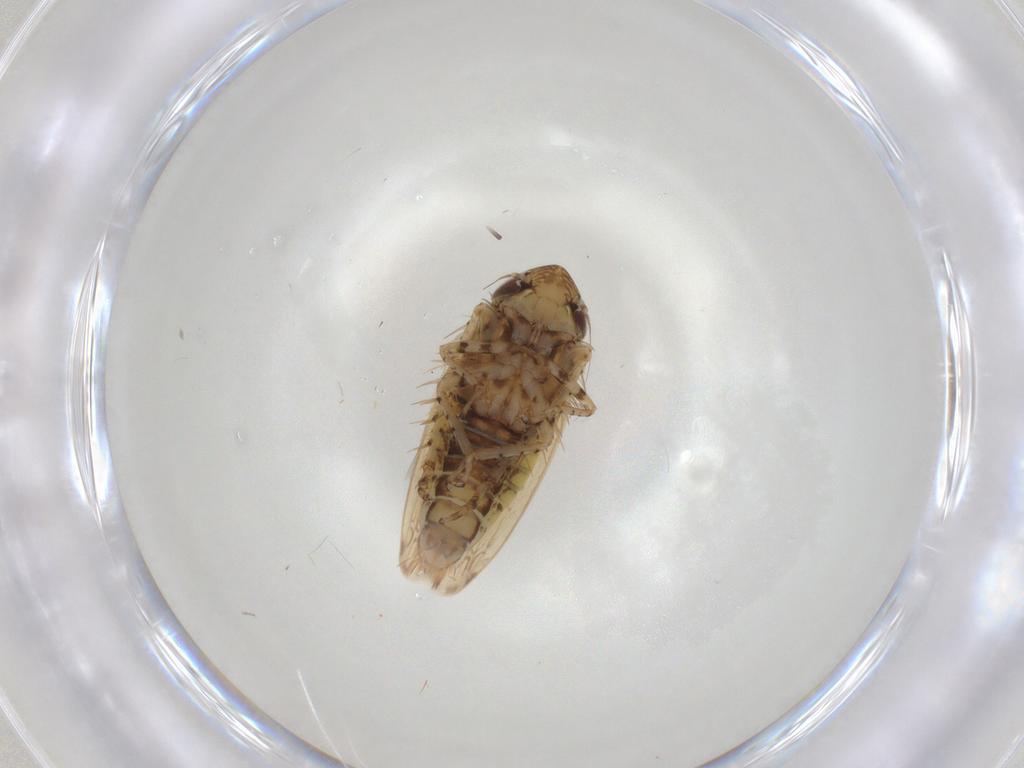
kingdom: Animalia
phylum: Arthropoda
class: Insecta
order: Hemiptera
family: Cicadellidae
